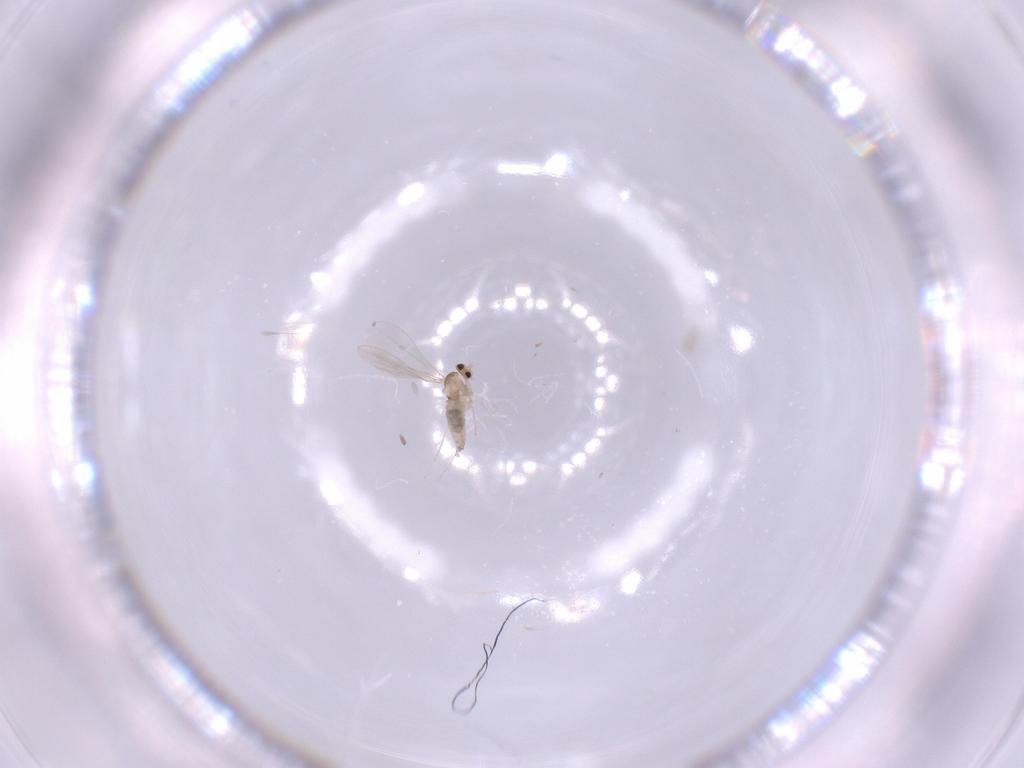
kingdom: Animalia
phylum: Arthropoda
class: Insecta
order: Diptera
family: Cecidomyiidae
